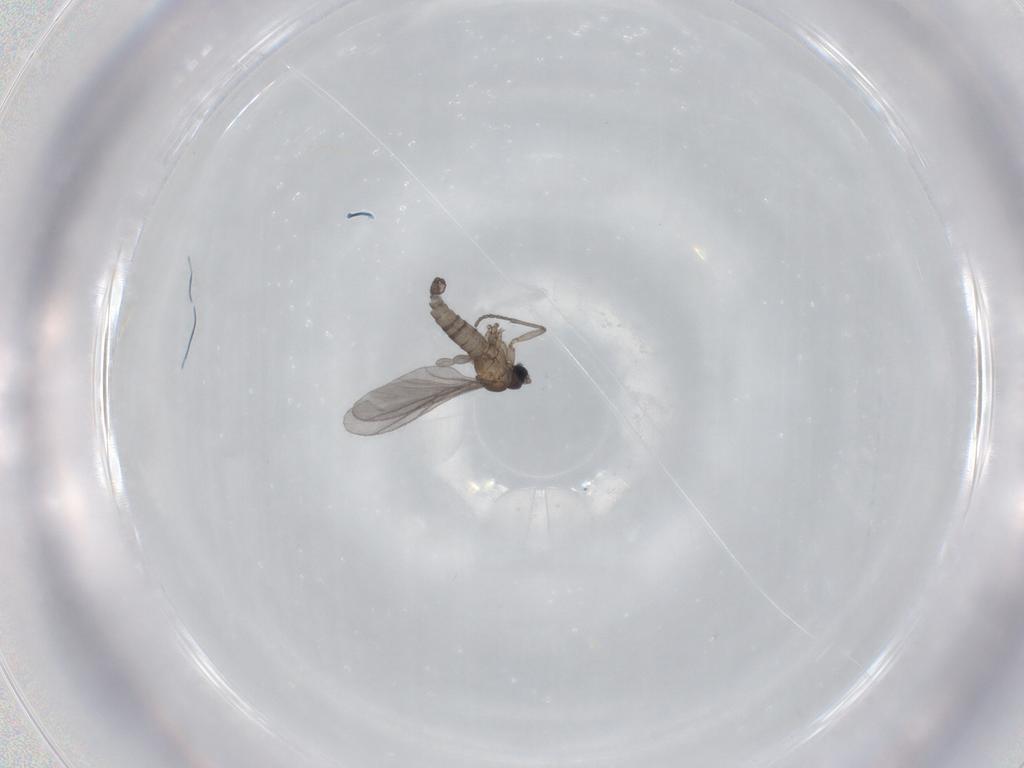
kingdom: Animalia
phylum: Arthropoda
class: Insecta
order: Diptera
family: Sciaridae
